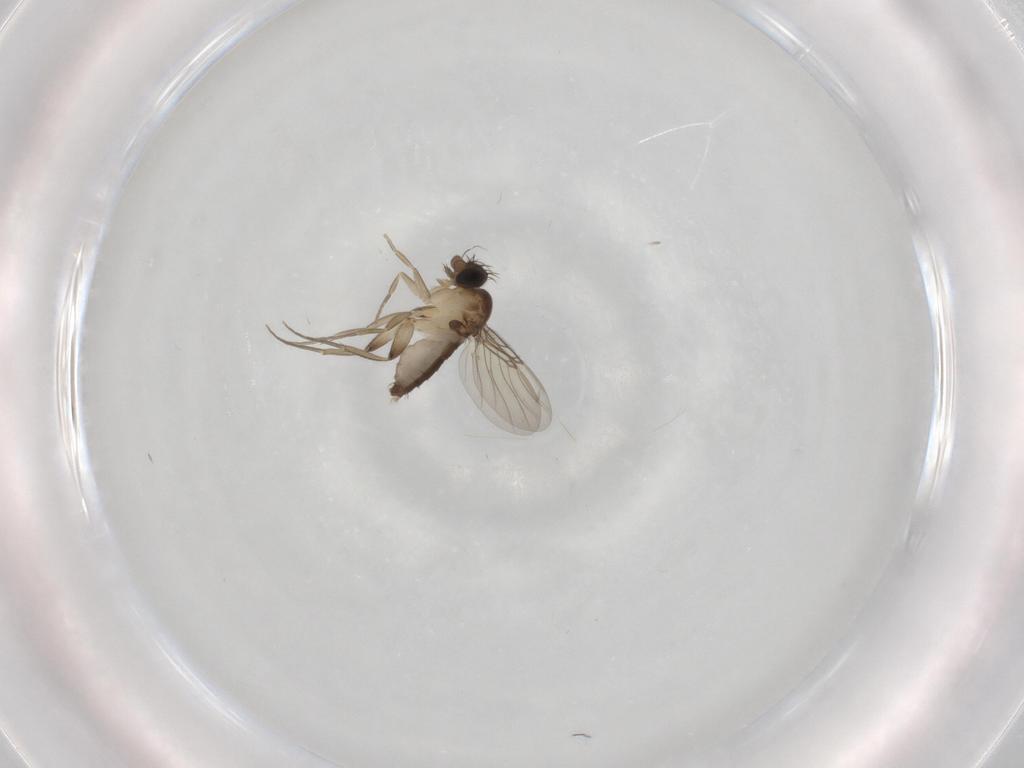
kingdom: Animalia
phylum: Arthropoda
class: Insecta
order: Diptera
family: Phoridae
